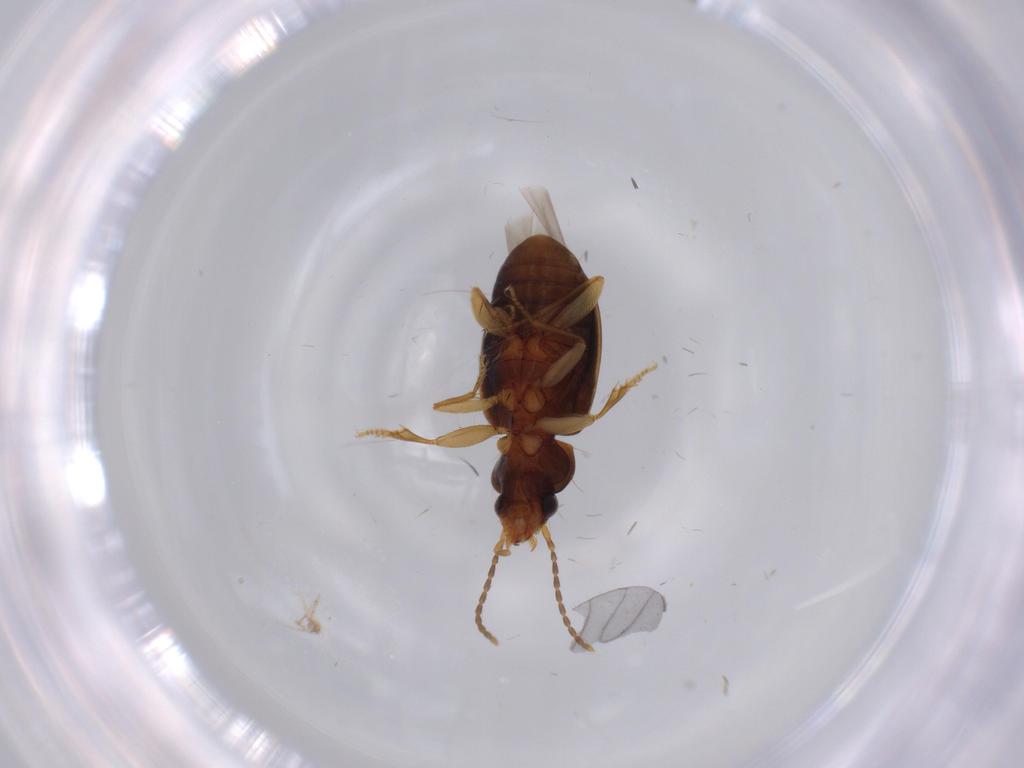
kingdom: Animalia
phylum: Arthropoda
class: Insecta
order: Coleoptera
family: Carabidae
